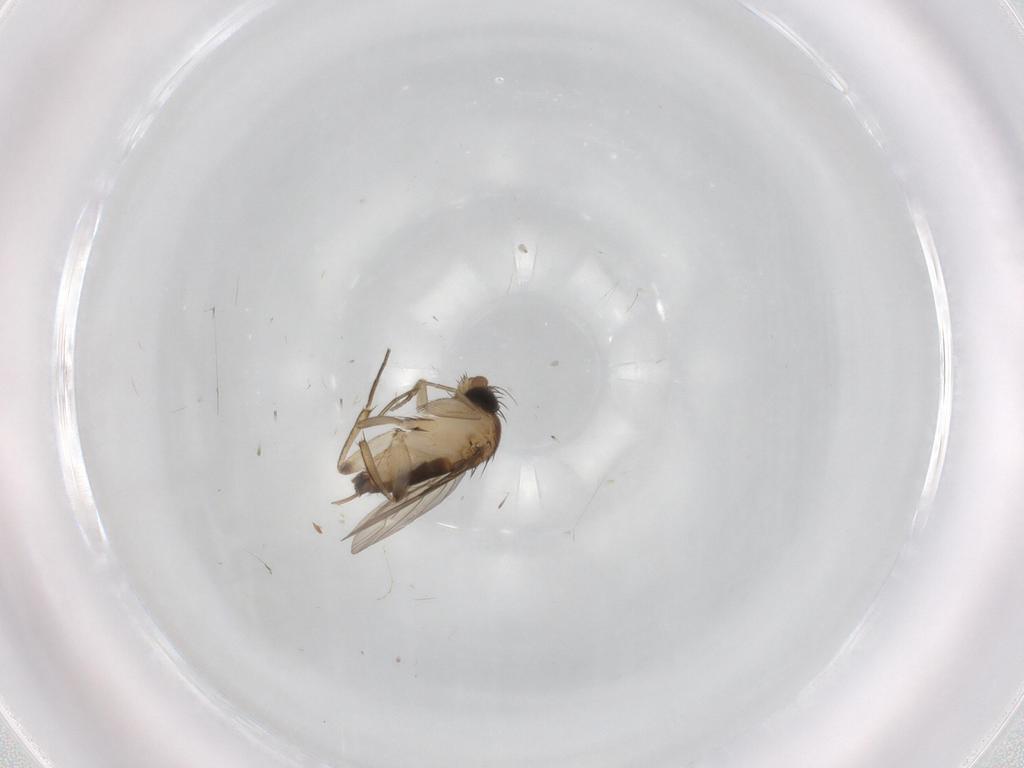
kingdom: Animalia
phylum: Arthropoda
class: Insecta
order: Diptera
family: Phoridae
